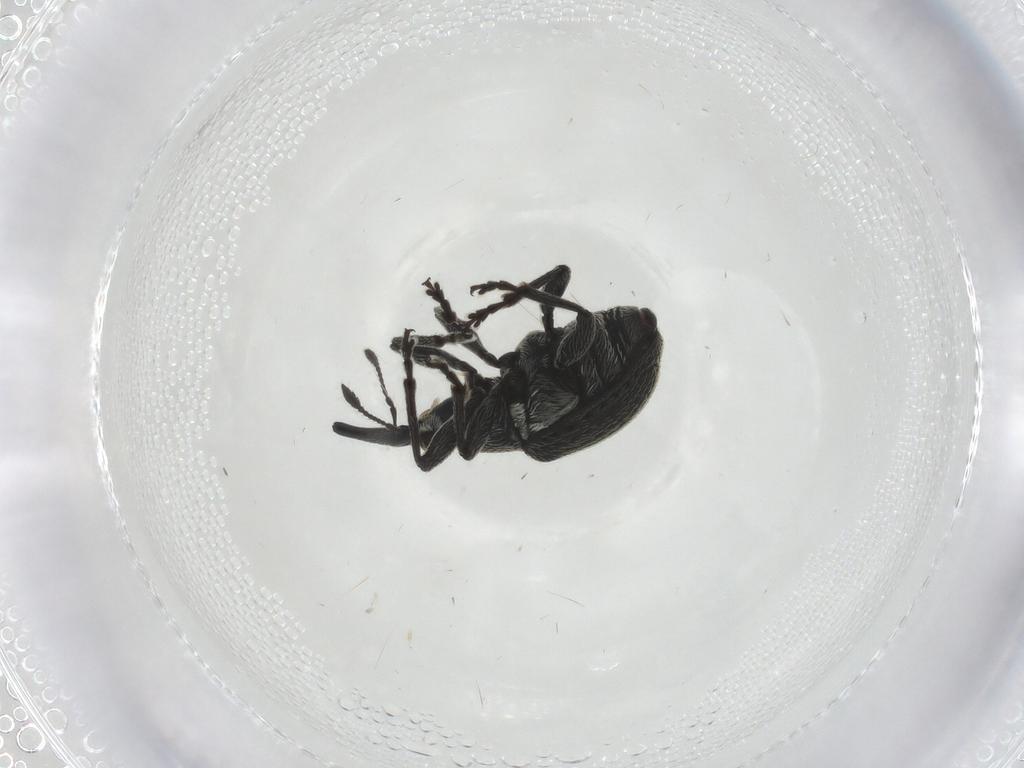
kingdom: Animalia
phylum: Arthropoda
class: Insecta
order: Coleoptera
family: Brentidae
